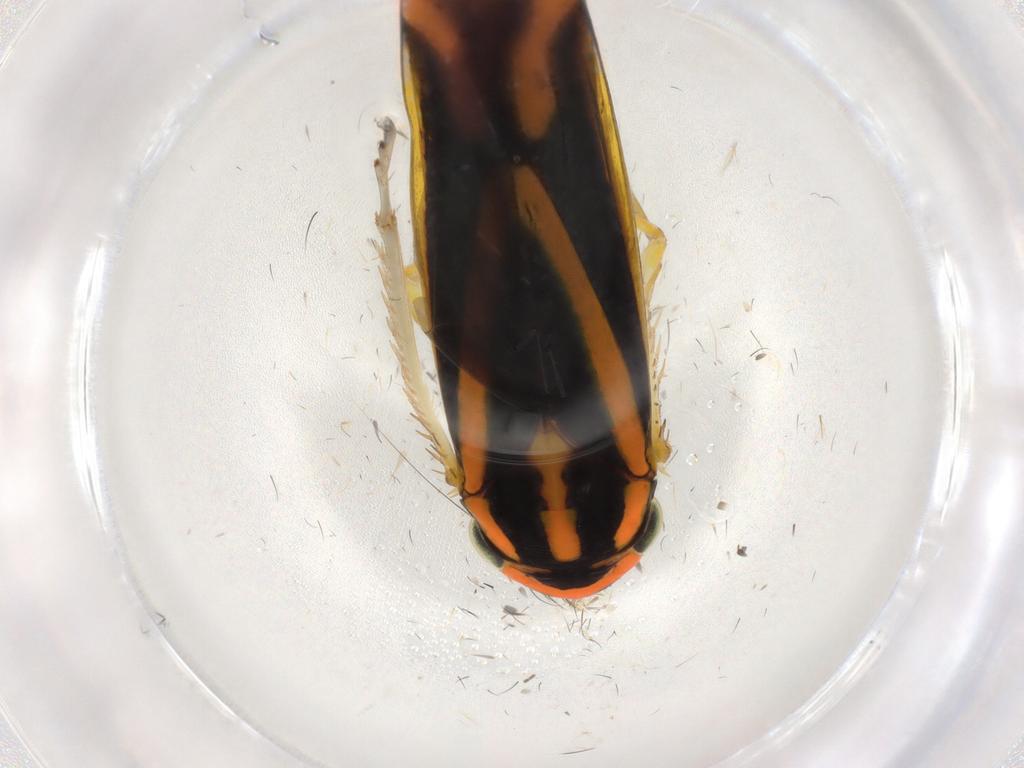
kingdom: Animalia
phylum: Arthropoda
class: Insecta
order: Hemiptera
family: Cicadellidae
